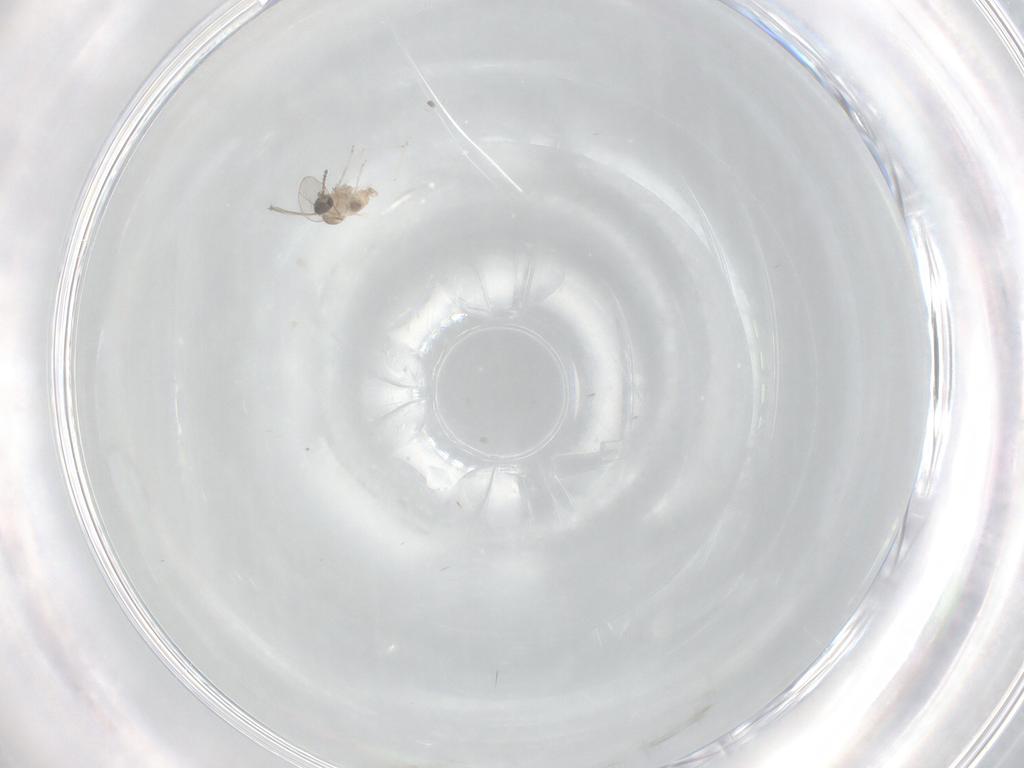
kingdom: Animalia
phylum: Arthropoda
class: Insecta
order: Diptera
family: Cecidomyiidae
